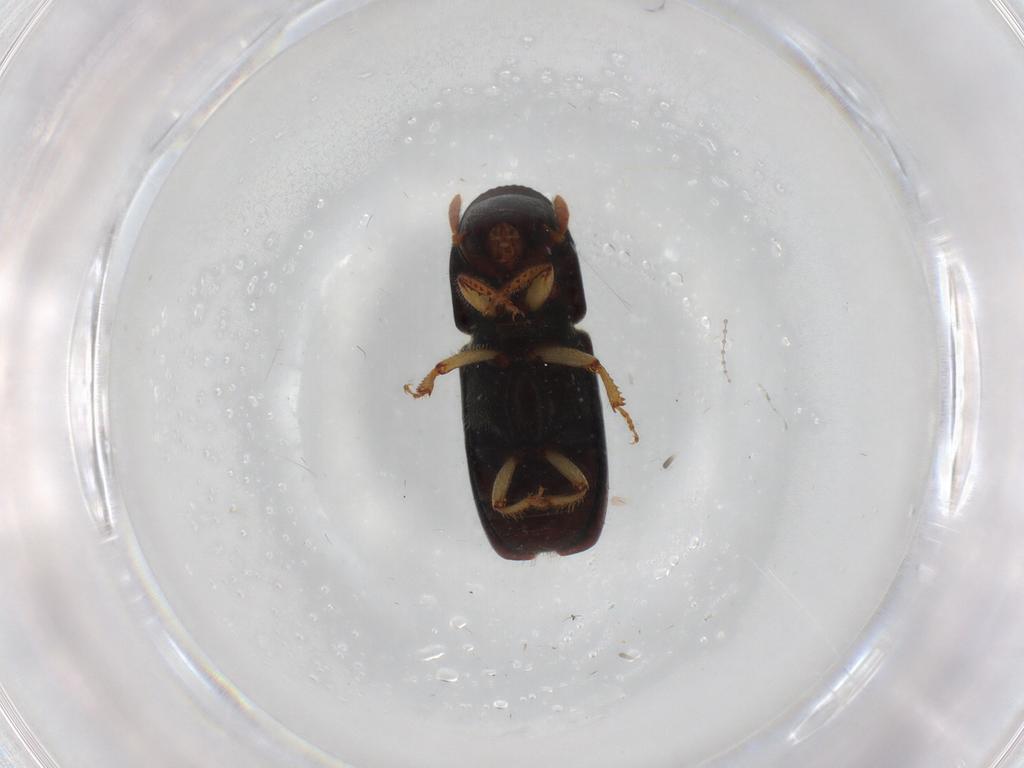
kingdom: Animalia
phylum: Arthropoda
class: Insecta
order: Coleoptera
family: Curculionidae
